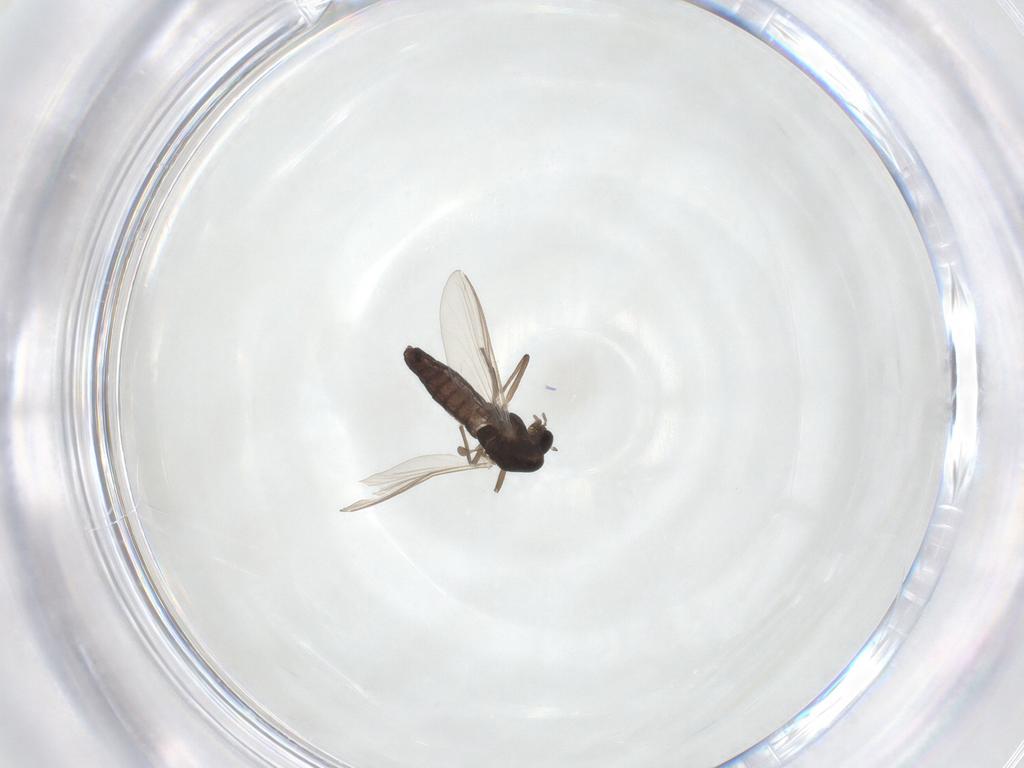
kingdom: Animalia
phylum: Arthropoda
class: Insecta
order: Diptera
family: Chironomidae
